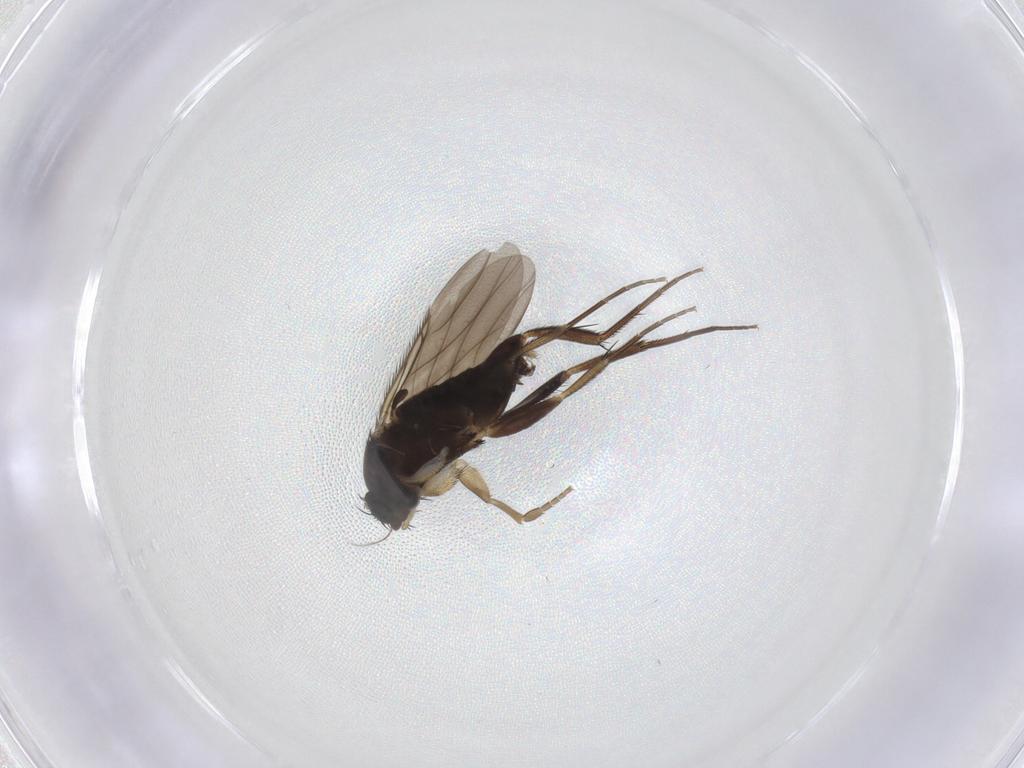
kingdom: Animalia
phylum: Arthropoda
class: Insecta
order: Diptera
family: Phoridae
